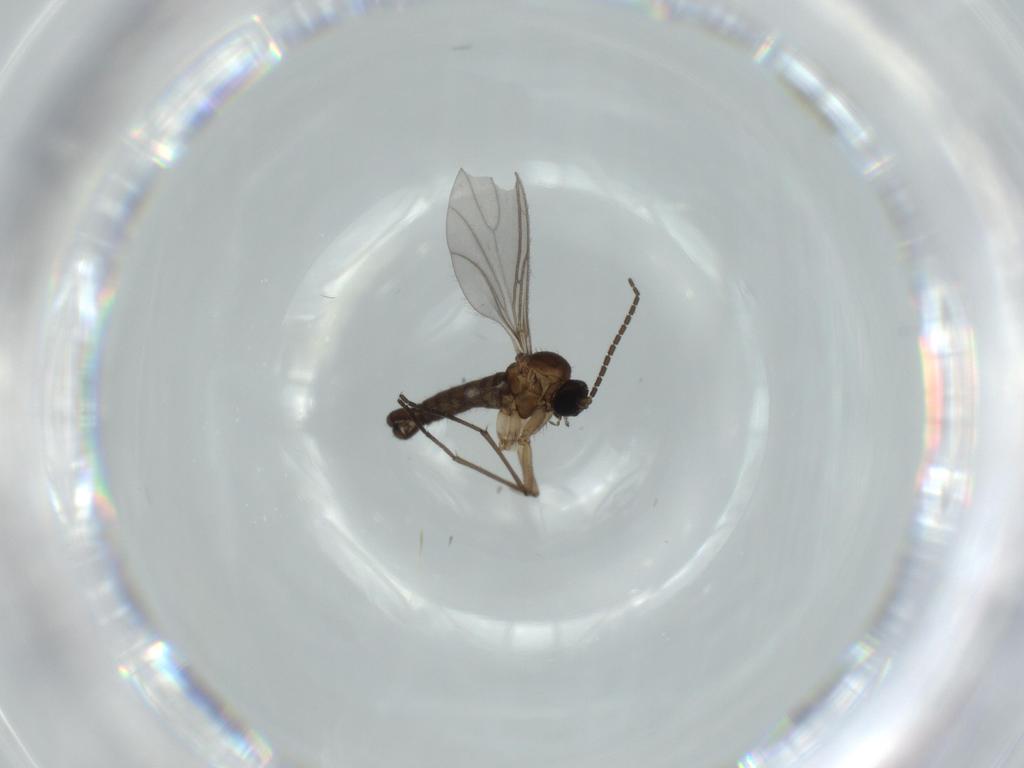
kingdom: Animalia
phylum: Arthropoda
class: Insecta
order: Diptera
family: Sciaridae
